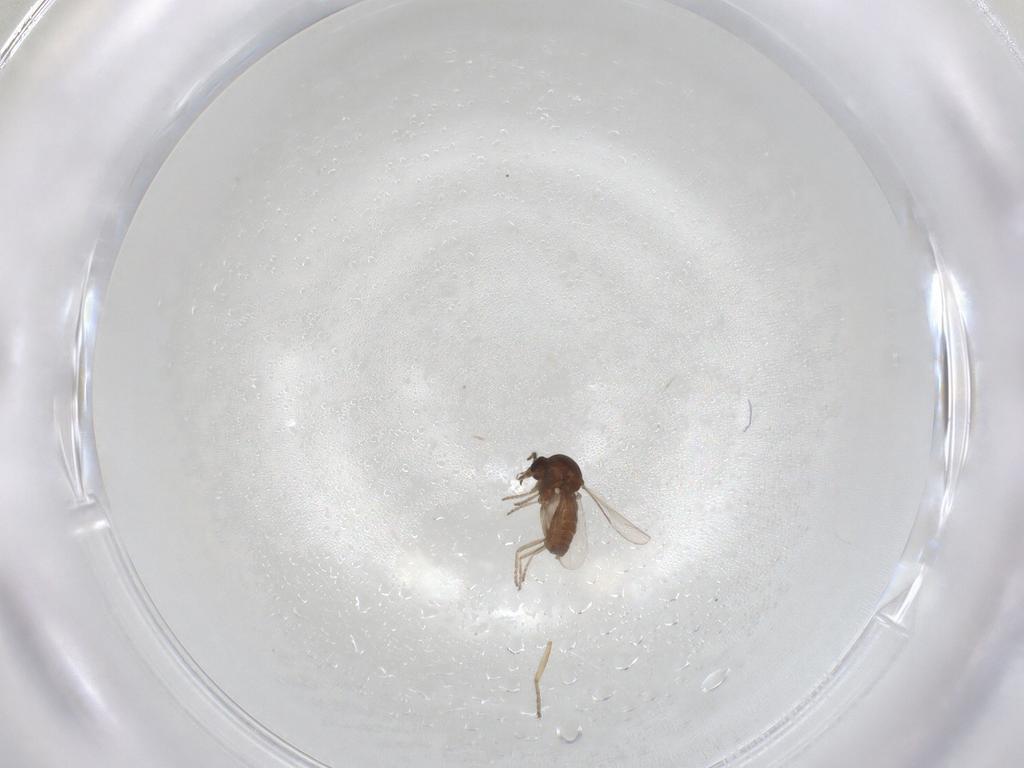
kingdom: Animalia
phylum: Arthropoda
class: Insecta
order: Diptera
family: Ceratopogonidae
